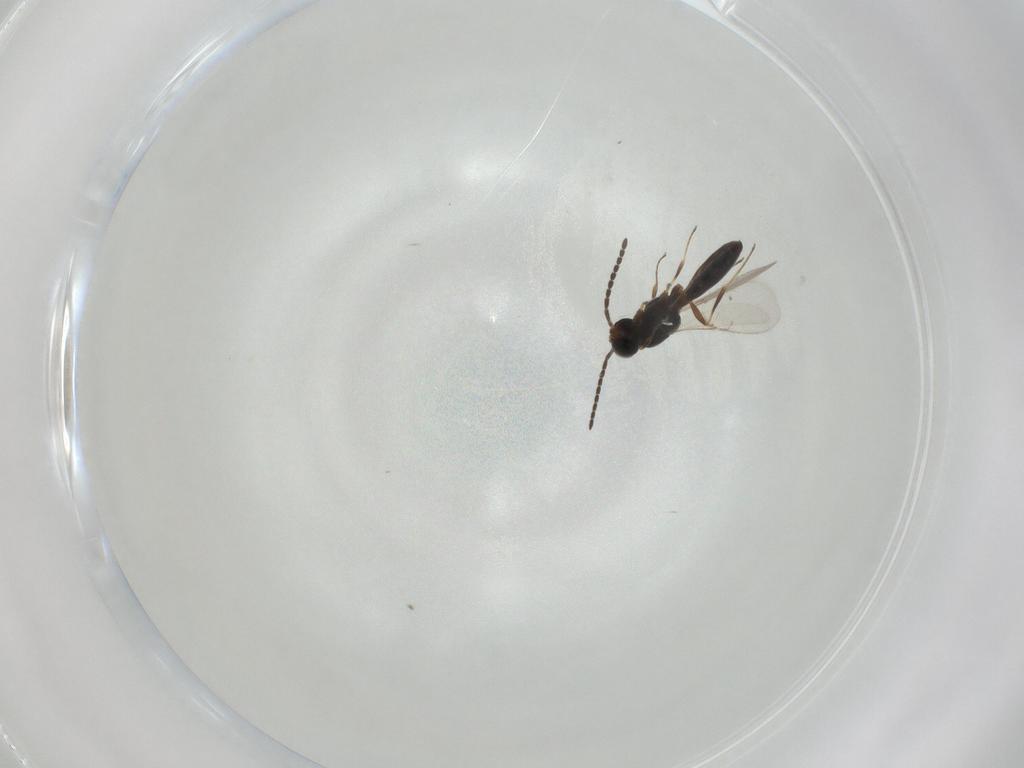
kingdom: Animalia
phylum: Arthropoda
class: Insecta
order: Hymenoptera
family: Scelionidae
